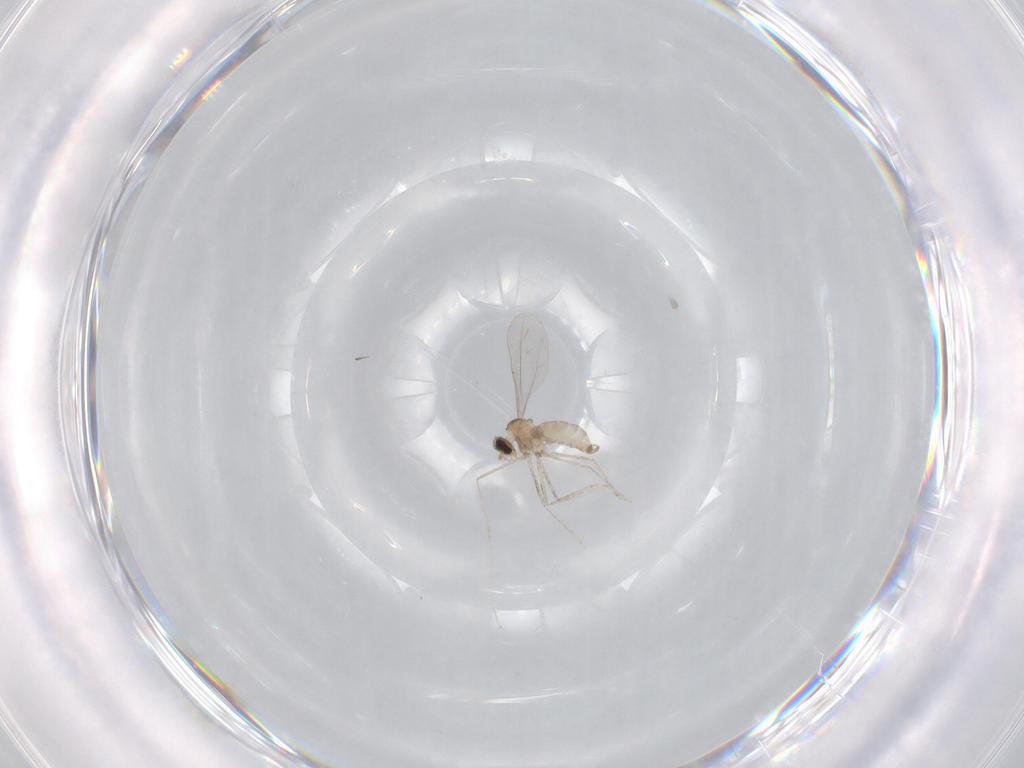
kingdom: Animalia
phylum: Arthropoda
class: Insecta
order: Diptera
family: Cecidomyiidae
